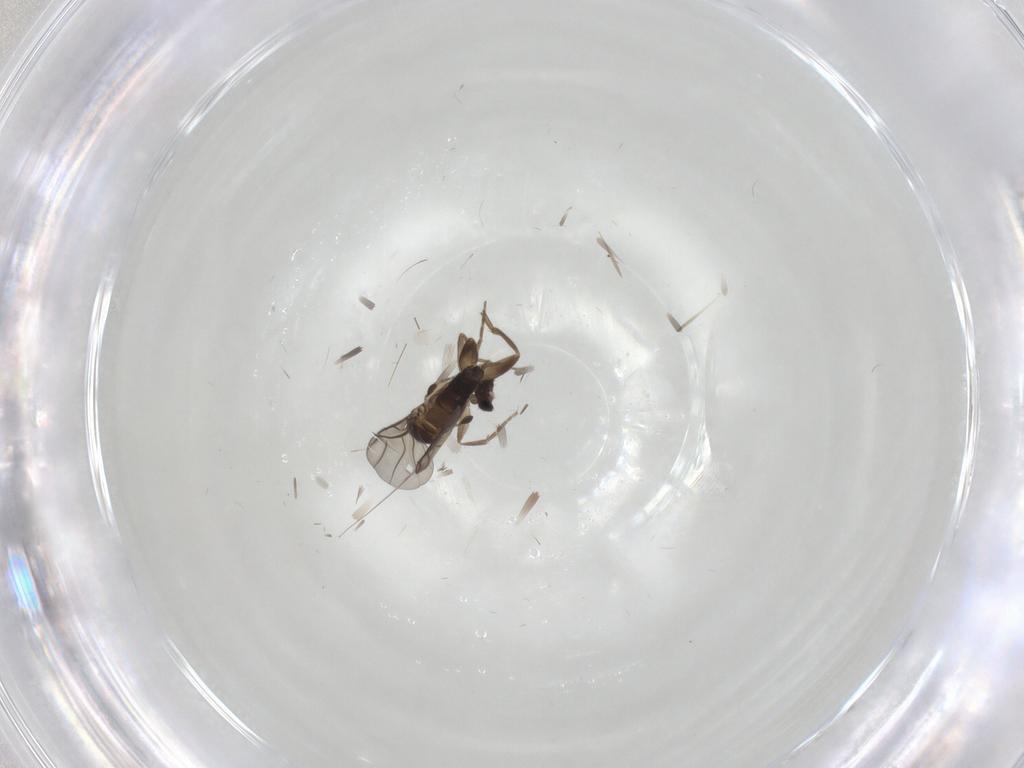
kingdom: Animalia
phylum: Arthropoda
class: Insecta
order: Diptera
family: Phoridae
